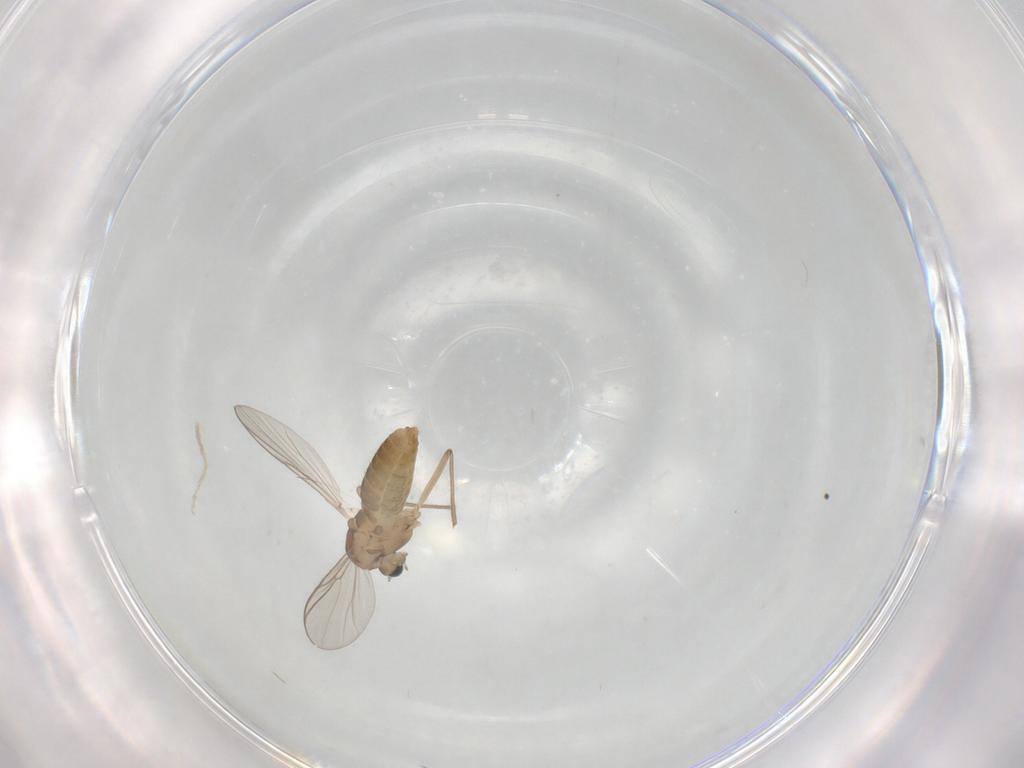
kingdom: Animalia
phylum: Arthropoda
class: Insecta
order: Diptera
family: Chironomidae
